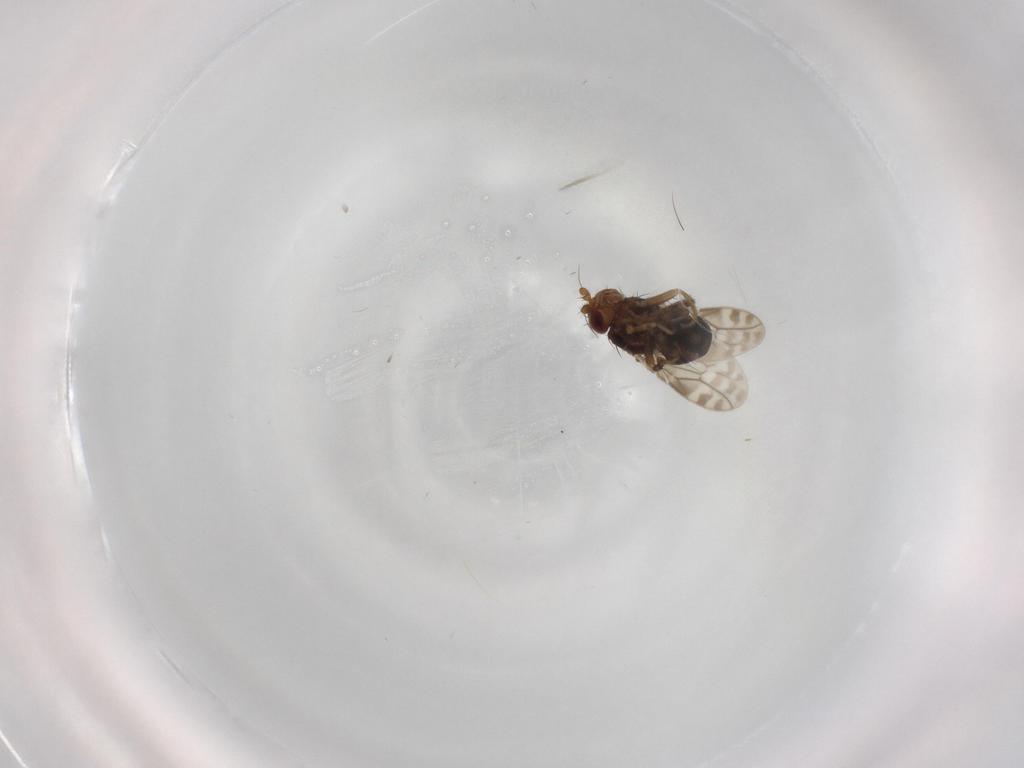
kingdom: Animalia
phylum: Arthropoda
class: Insecta
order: Diptera
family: Sphaeroceridae
